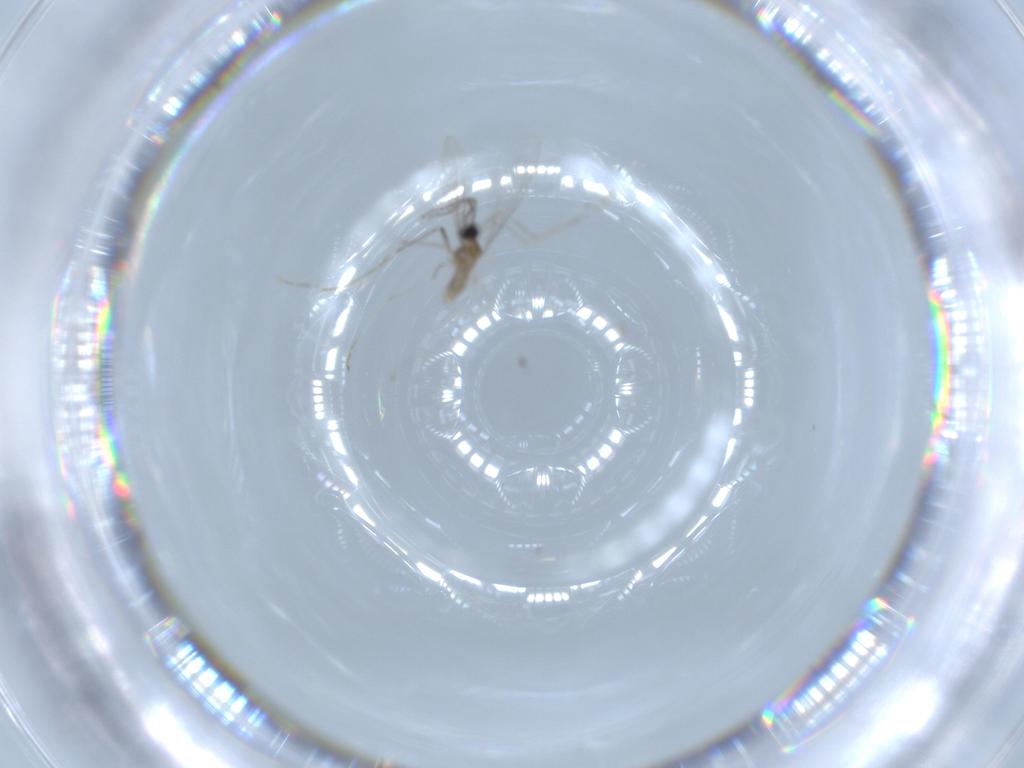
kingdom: Animalia
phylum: Arthropoda
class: Insecta
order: Diptera
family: Cecidomyiidae
